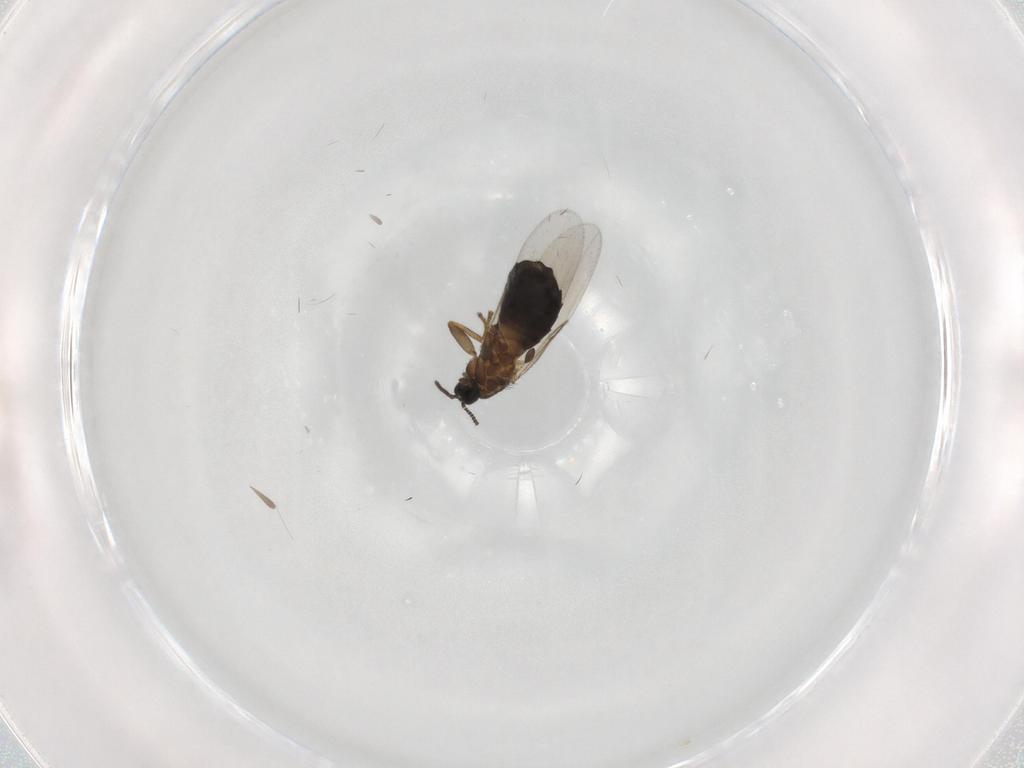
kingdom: Animalia
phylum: Arthropoda
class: Insecta
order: Diptera
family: Scatopsidae
